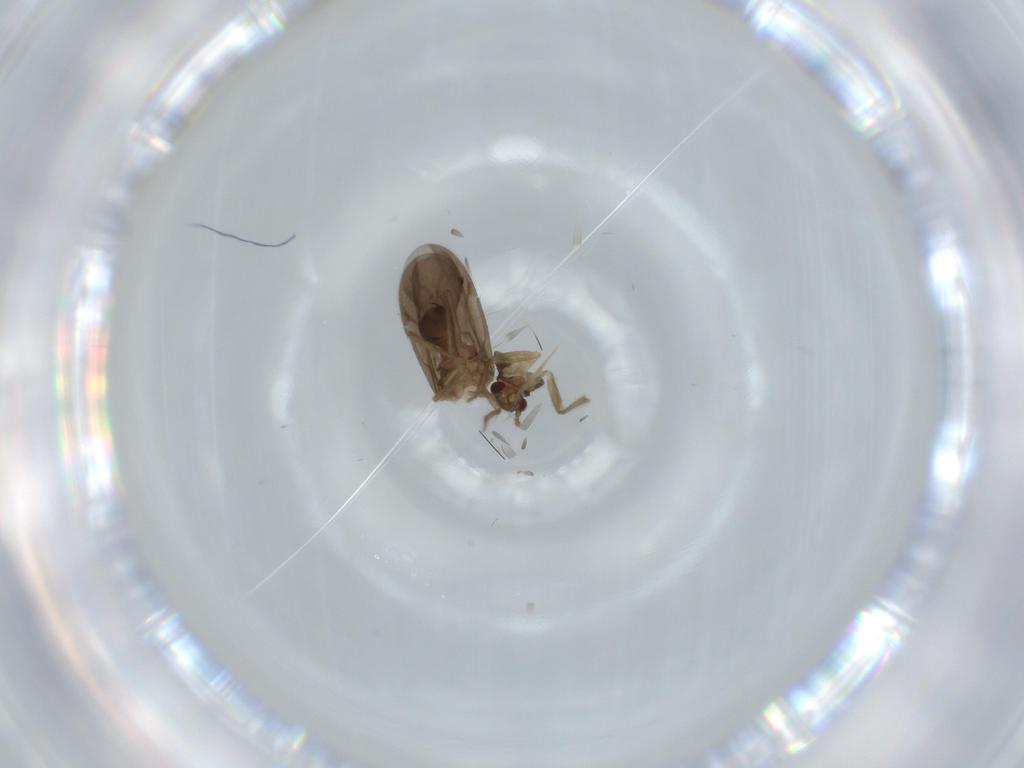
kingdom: Animalia
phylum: Arthropoda
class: Insecta
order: Hemiptera
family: Ceratocombidae
